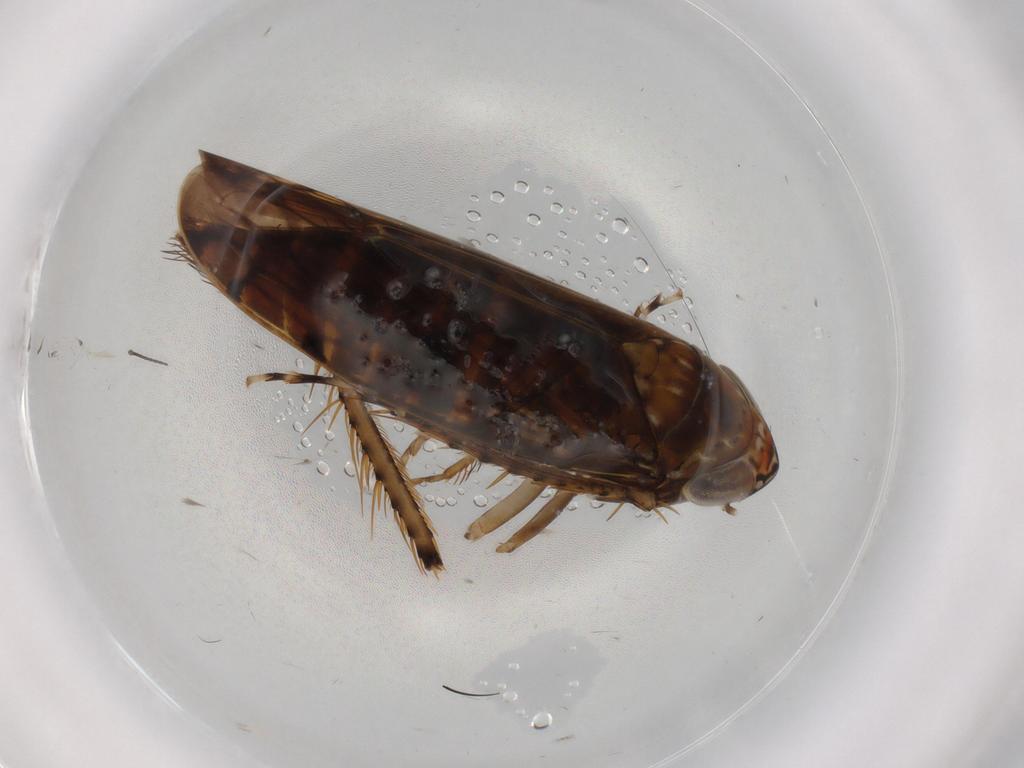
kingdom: Animalia
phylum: Arthropoda
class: Insecta
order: Hemiptera
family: Cicadellidae
